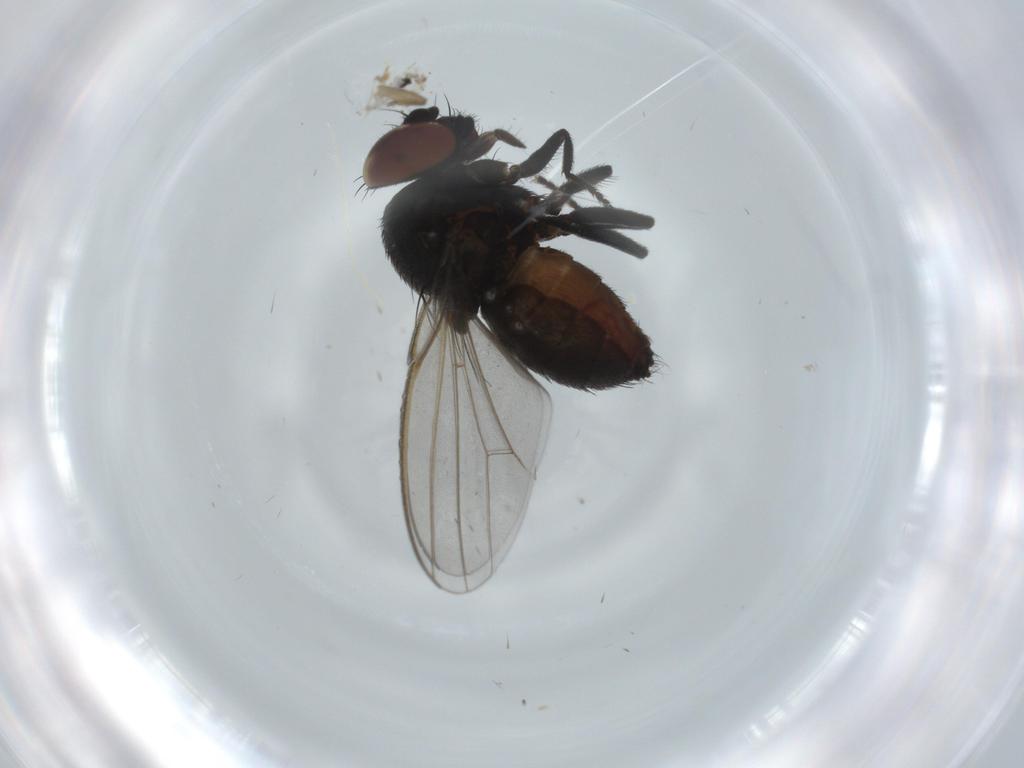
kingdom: Animalia
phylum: Arthropoda
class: Insecta
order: Diptera
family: Milichiidae
